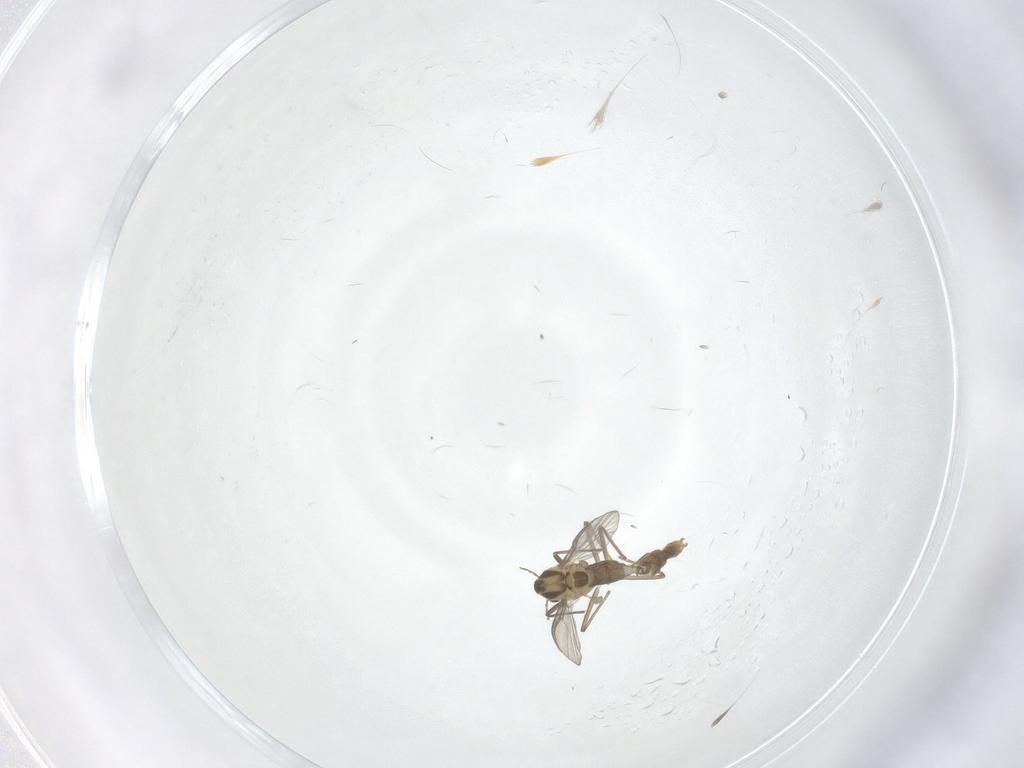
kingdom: Animalia
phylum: Arthropoda
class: Insecta
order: Diptera
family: Chironomidae
